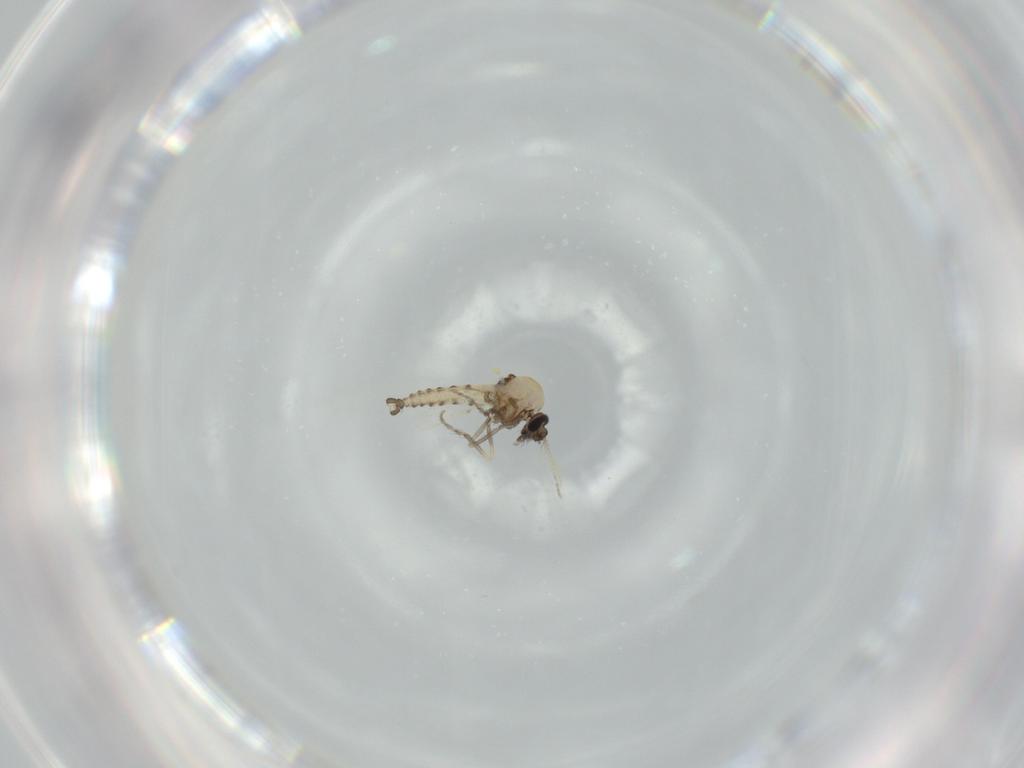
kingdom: Animalia
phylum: Arthropoda
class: Insecta
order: Diptera
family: Ceratopogonidae
